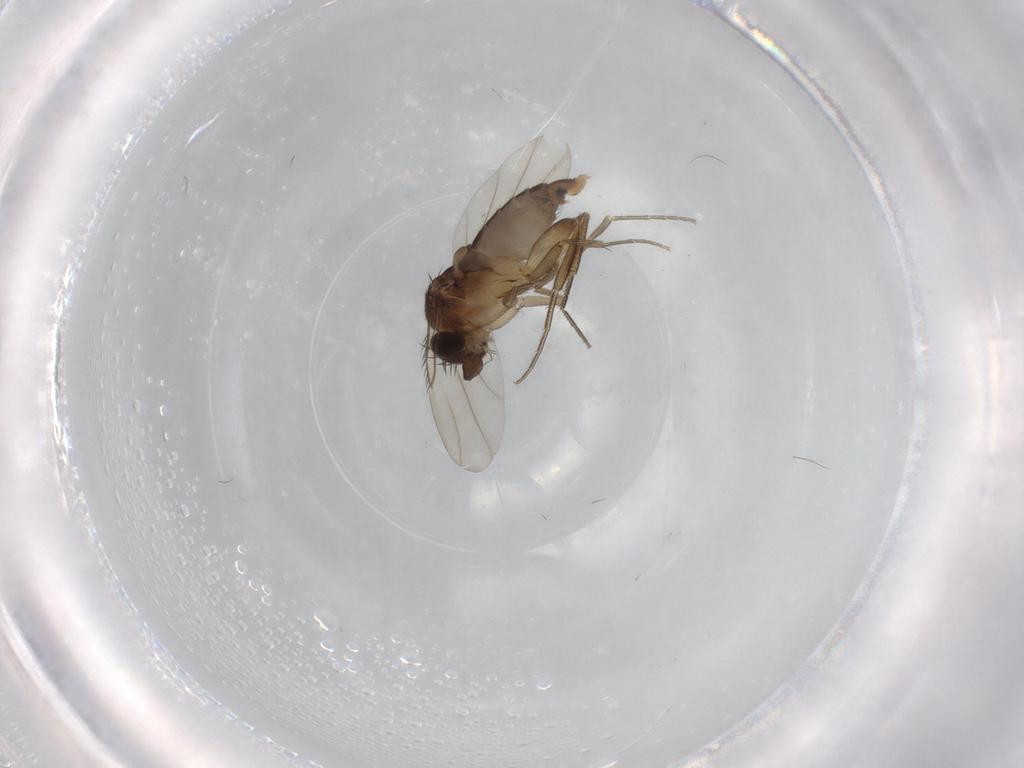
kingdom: Animalia
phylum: Arthropoda
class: Insecta
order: Diptera
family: Phoridae
